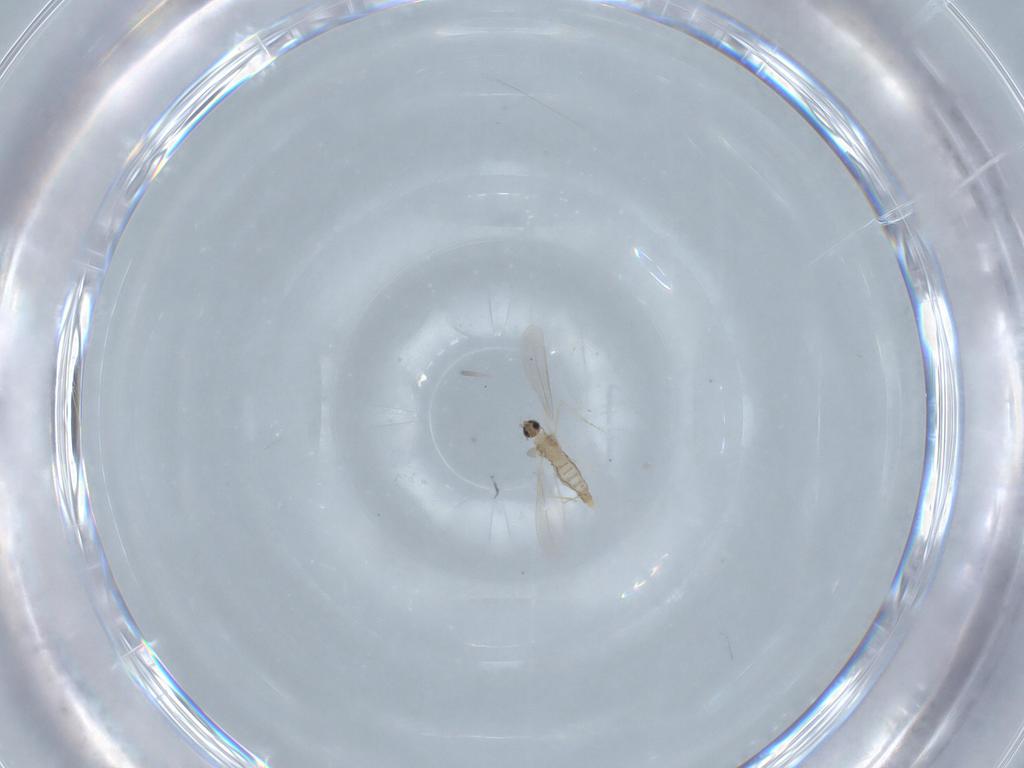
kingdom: Animalia
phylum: Arthropoda
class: Insecta
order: Diptera
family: Cecidomyiidae
